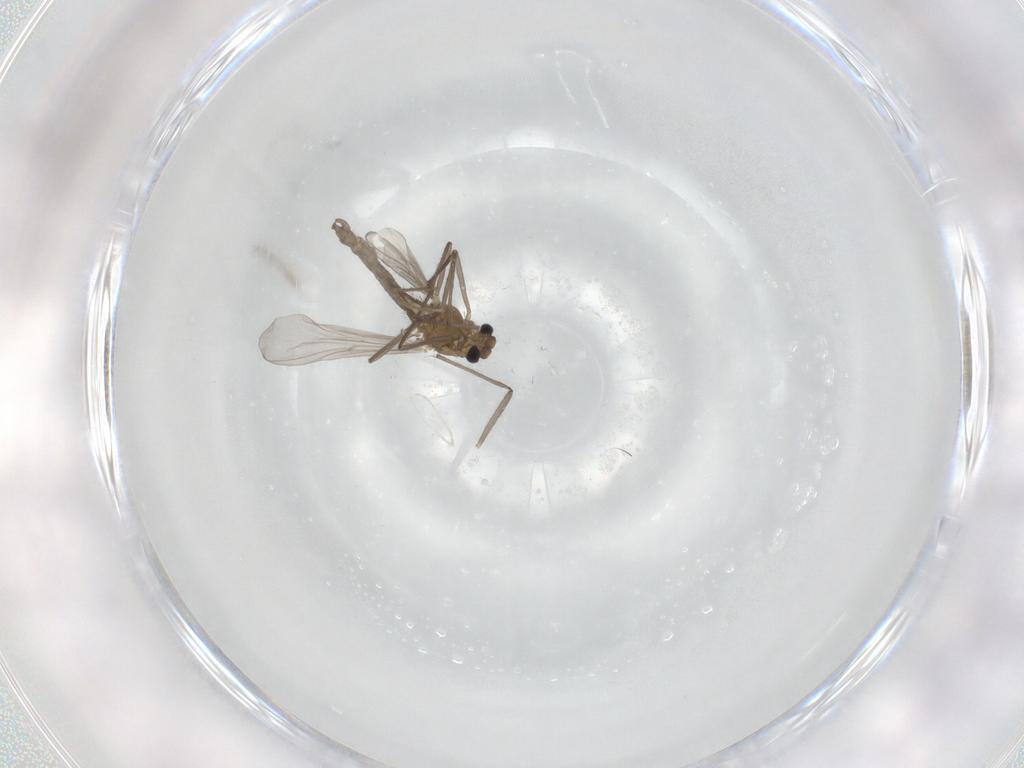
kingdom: Animalia
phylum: Arthropoda
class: Insecta
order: Diptera
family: Chironomidae
